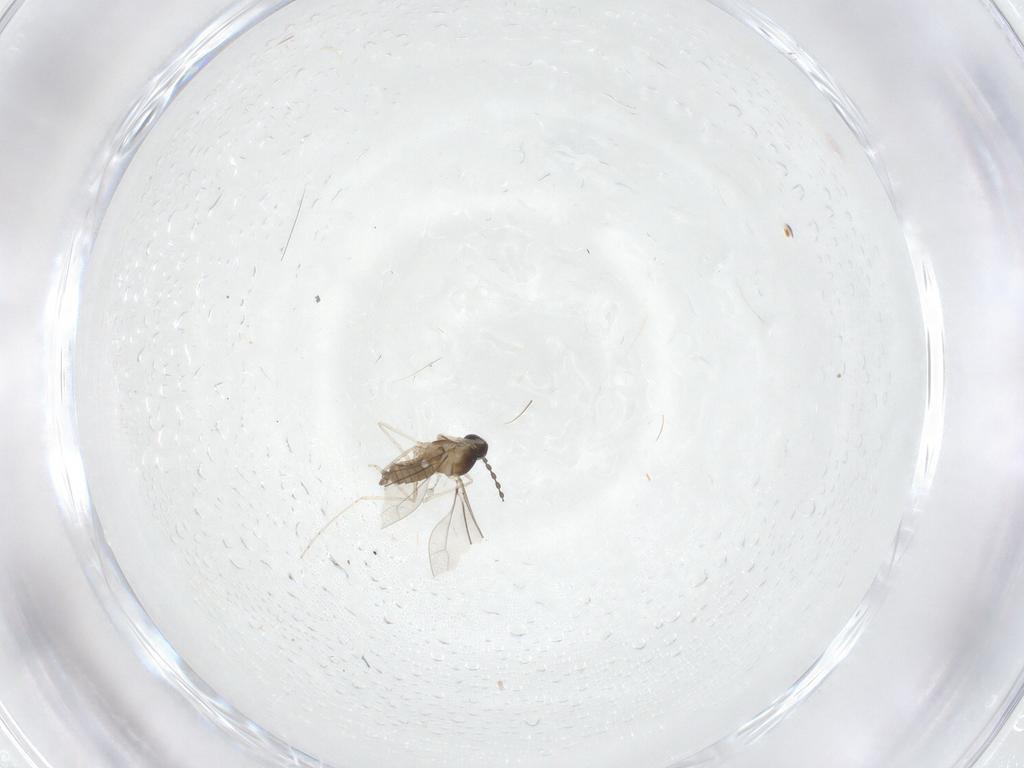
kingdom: Animalia
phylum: Arthropoda
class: Insecta
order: Diptera
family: Cecidomyiidae
